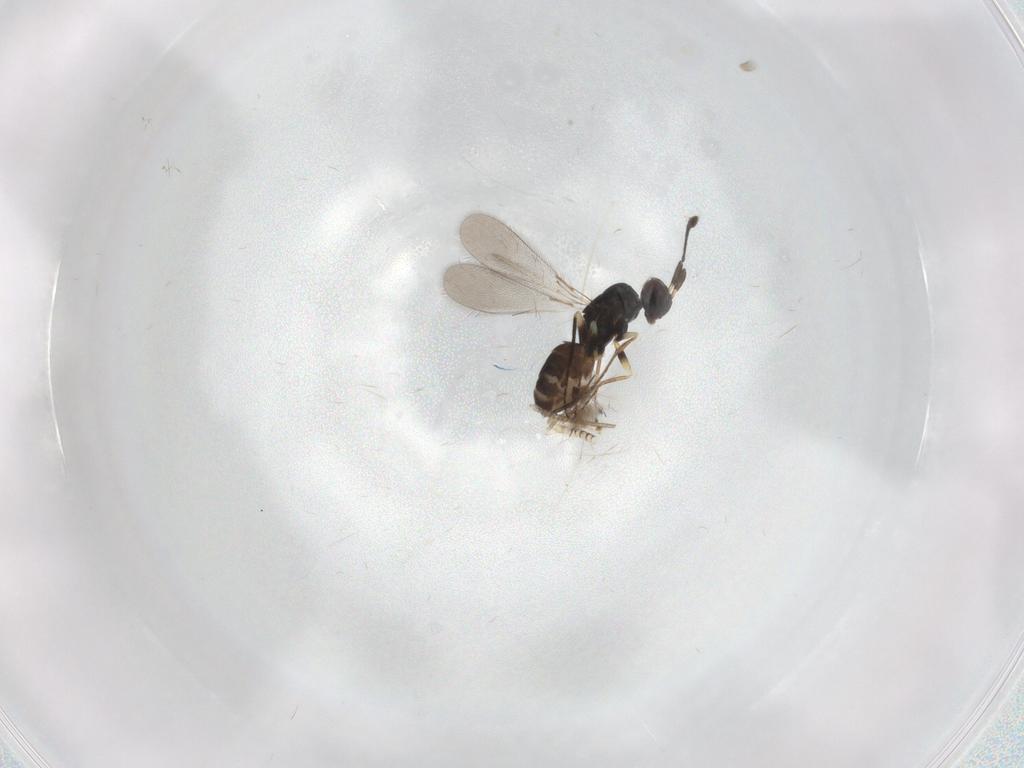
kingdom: Animalia
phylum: Arthropoda
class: Insecta
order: Hymenoptera
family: Mymaridae
